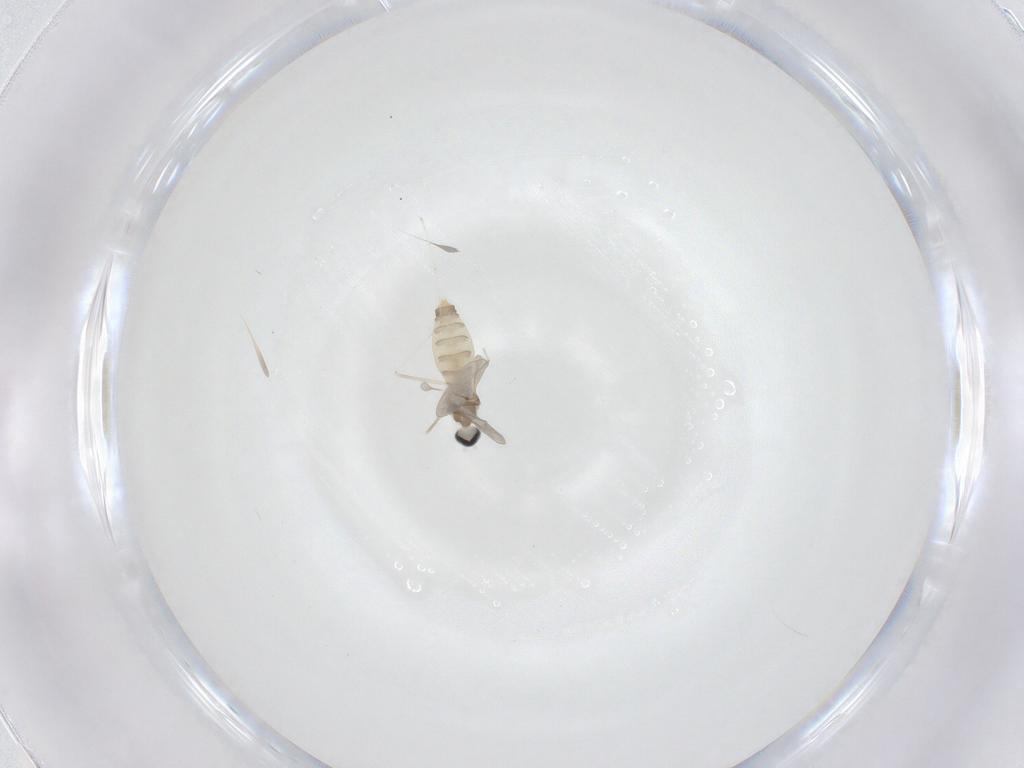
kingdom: Animalia
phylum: Arthropoda
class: Insecta
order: Diptera
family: Cecidomyiidae
